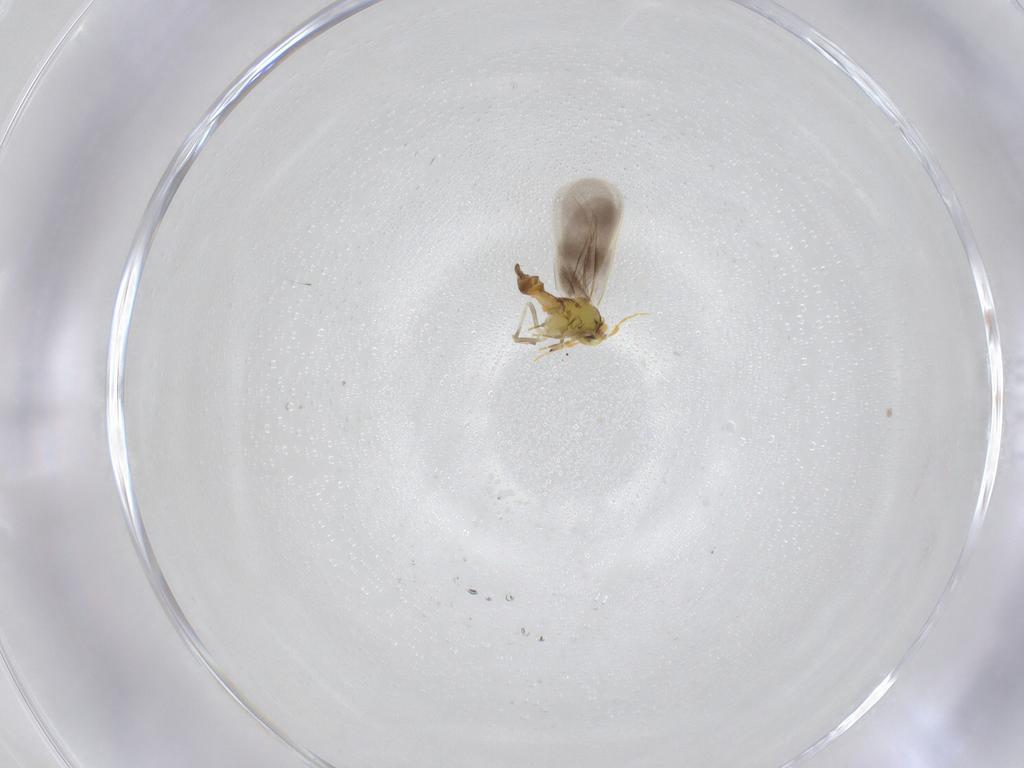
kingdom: Animalia
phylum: Arthropoda
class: Insecta
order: Hemiptera
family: Aleyrodidae
